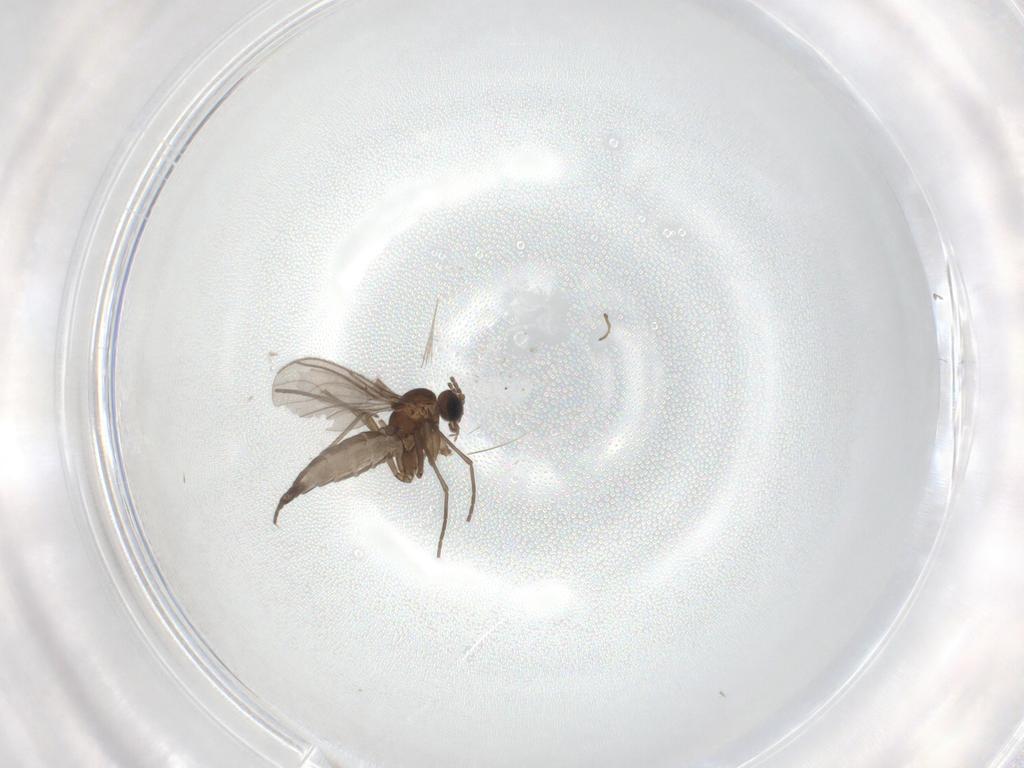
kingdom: Animalia
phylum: Arthropoda
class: Insecta
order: Diptera
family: Sciaridae
